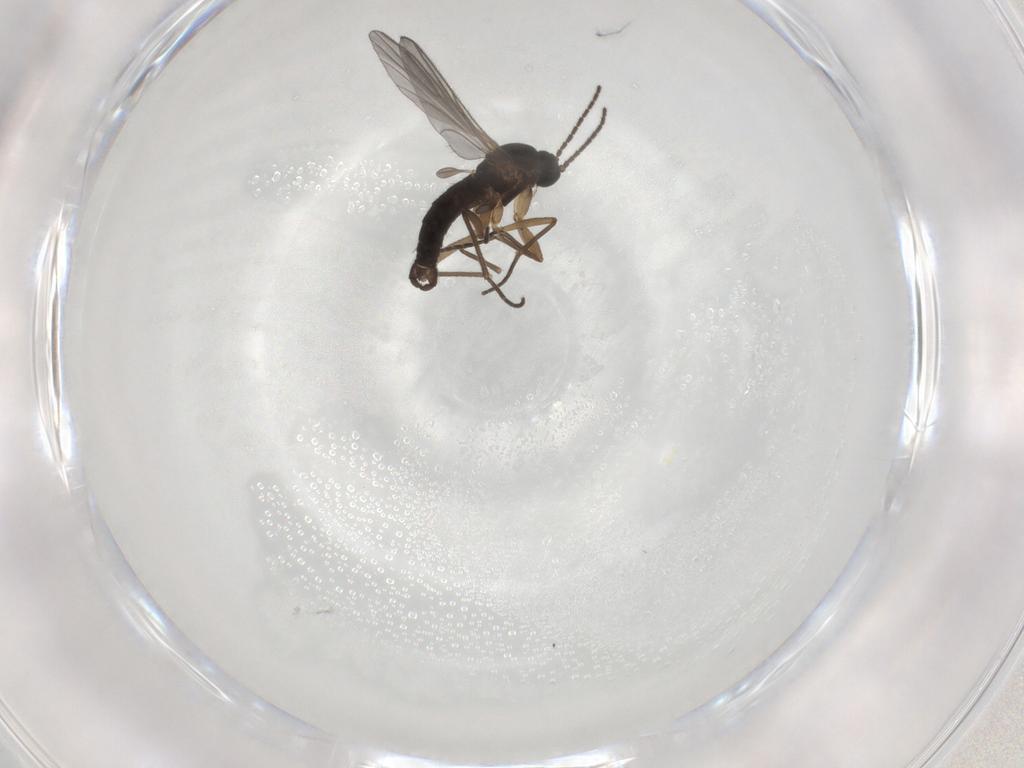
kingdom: Animalia
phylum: Arthropoda
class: Insecta
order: Diptera
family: Sciaridae
